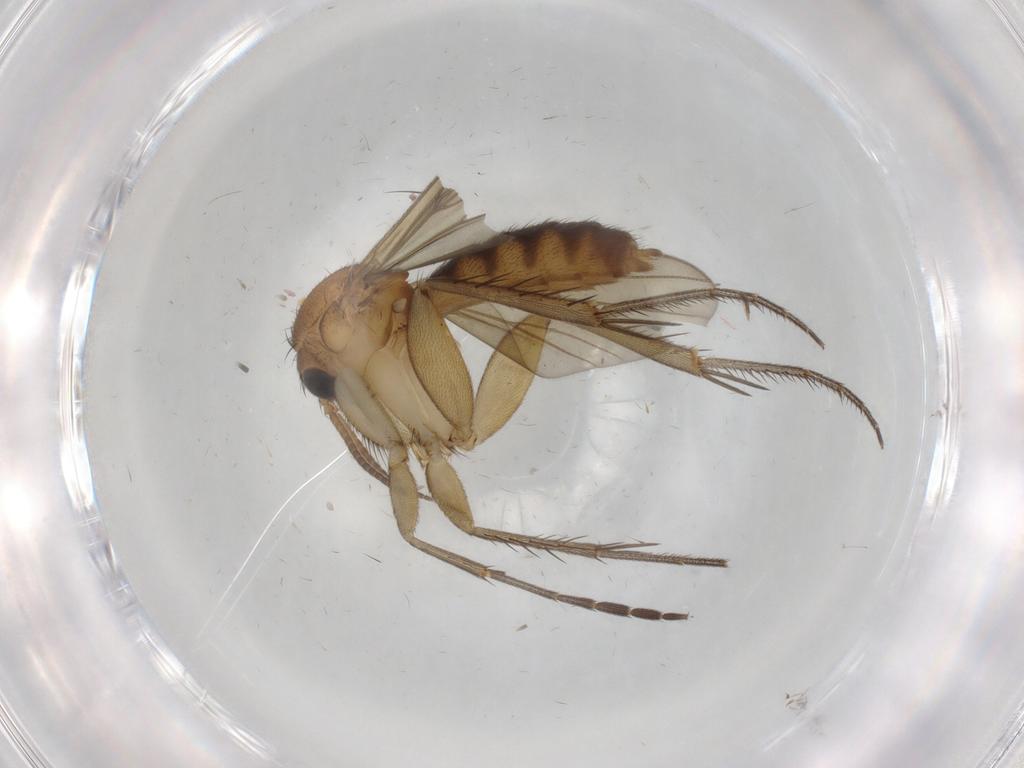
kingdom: Animalia
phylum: Arthropoda
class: Insecta
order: Diptera
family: Mycetophilidae
